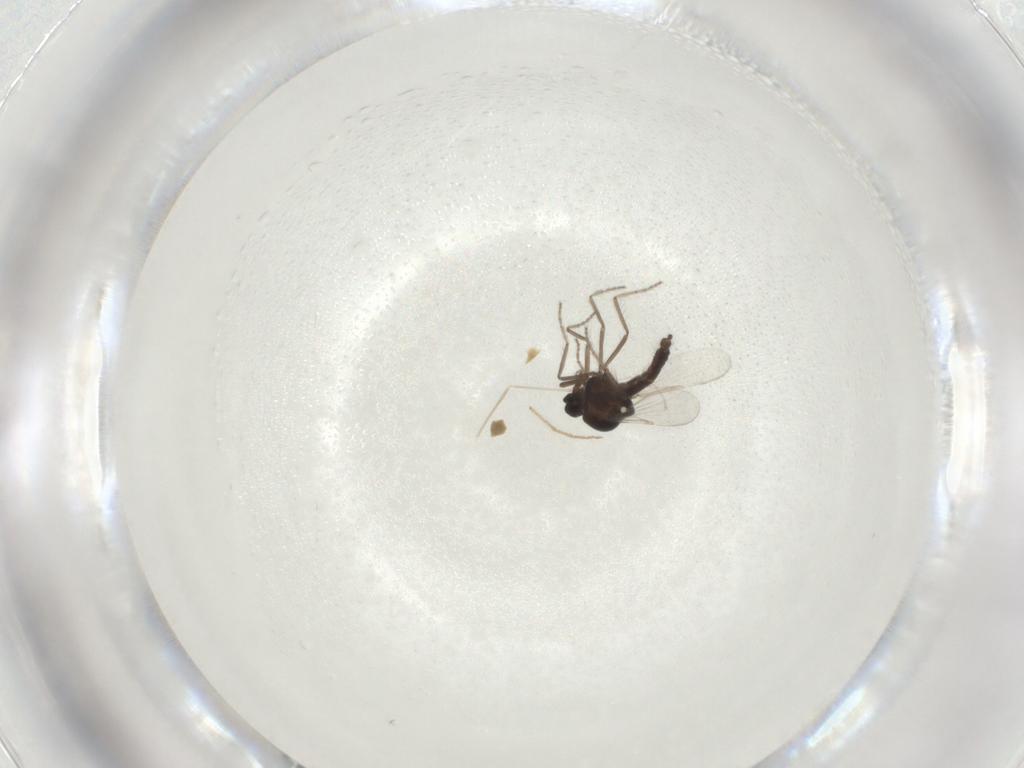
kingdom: Animalia
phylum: Arthropoda
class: Insecta
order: Diptera
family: Ceratopogonidae
